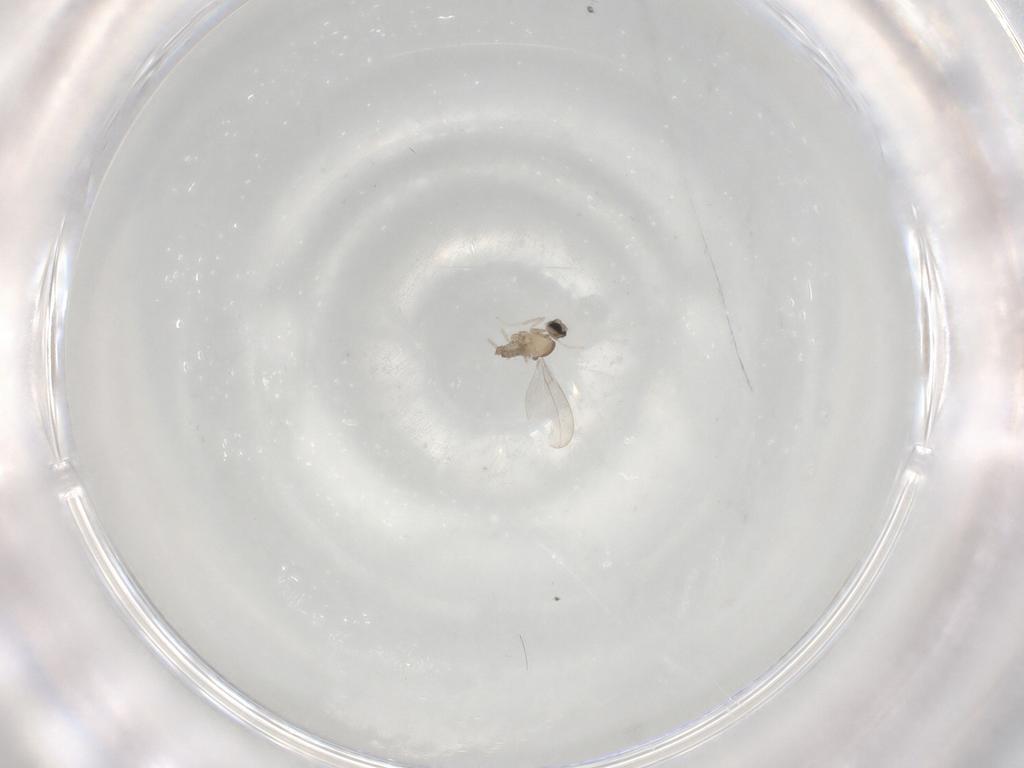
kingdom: Animalia
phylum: Arthropoda
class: Insecta
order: Diptera
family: Cecidomyiidae
